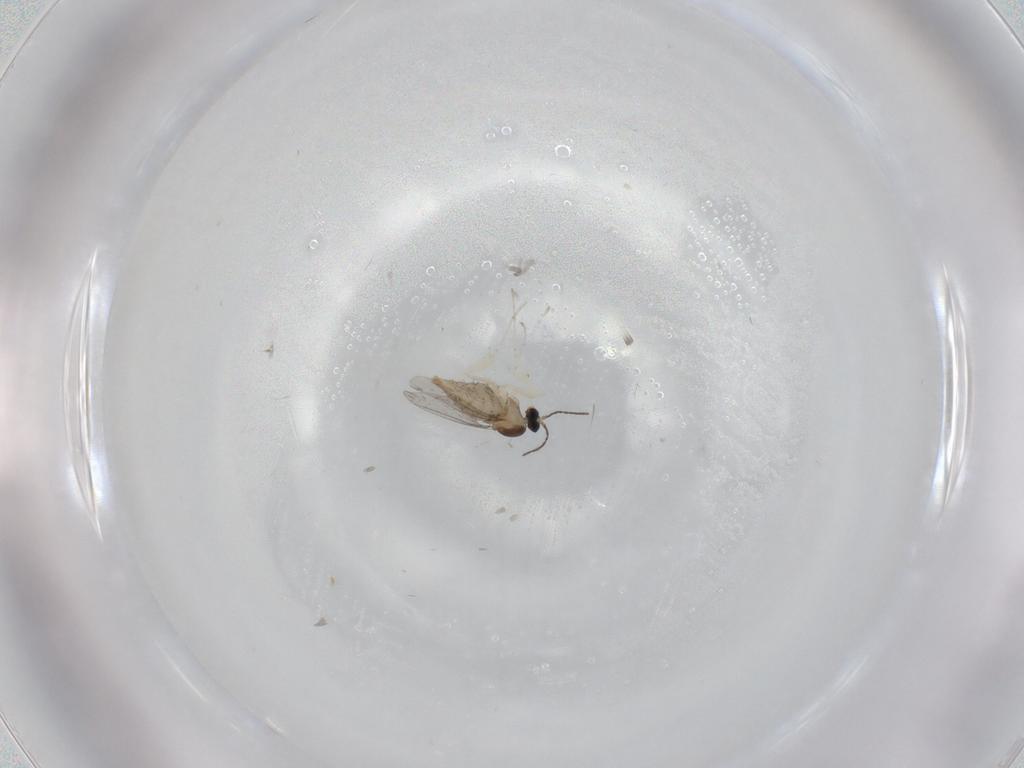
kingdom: Animalia
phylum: Arthropoda
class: Insecta
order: Diptera
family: Cecidomyiidae
